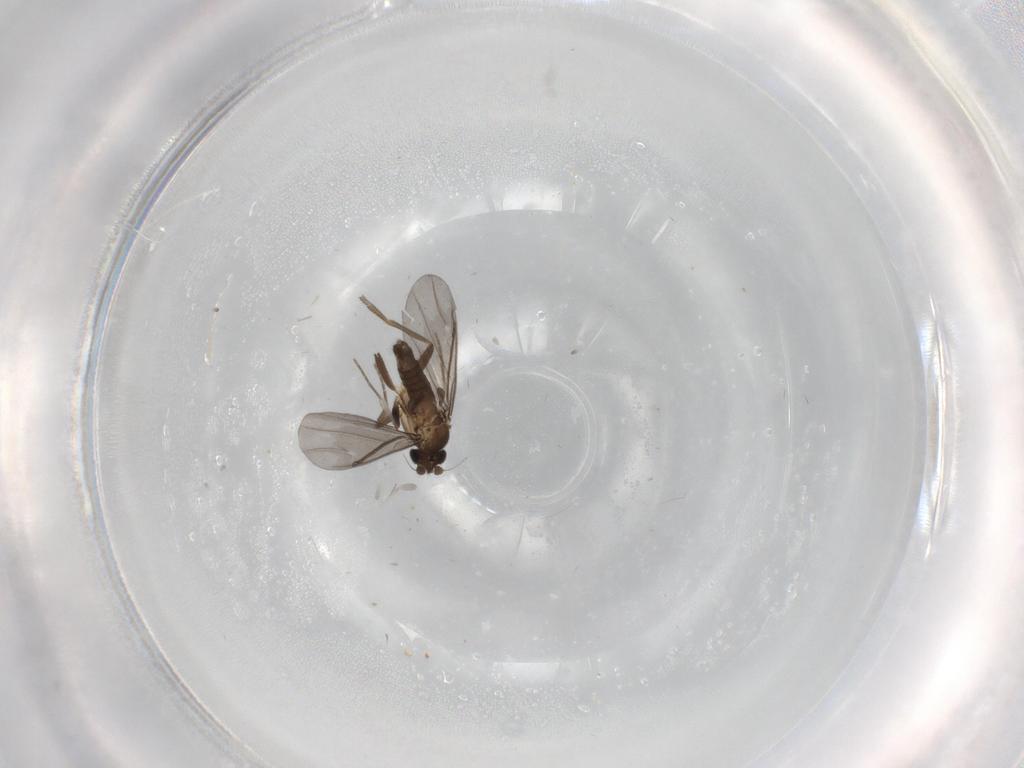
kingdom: Animalia
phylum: Arthropoda
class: Insecta
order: Diptera
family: Phoridae
